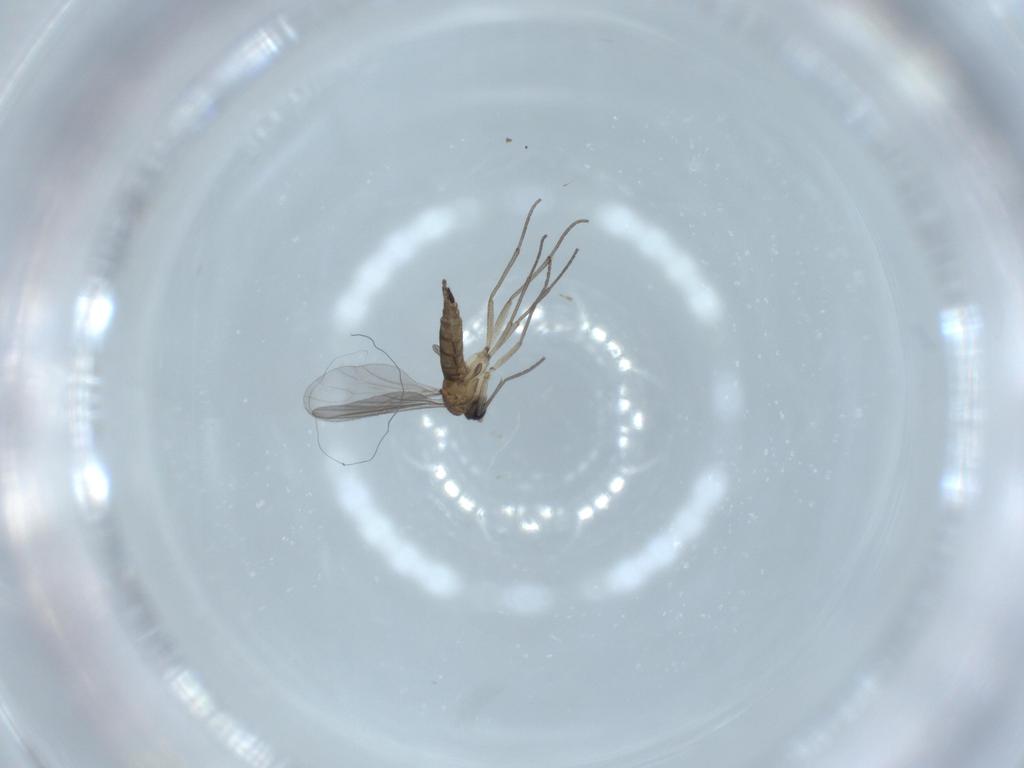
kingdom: Animalia
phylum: Arthropoda
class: Insecta
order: Diptera
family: Sciaridae
